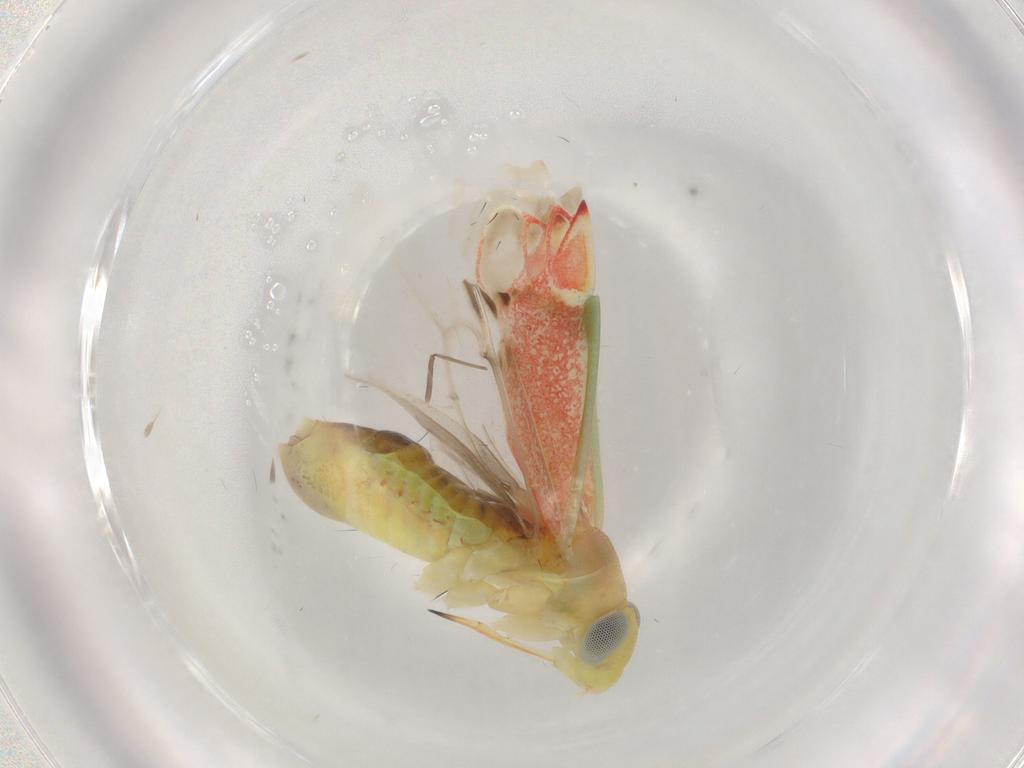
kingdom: Animalia
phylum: Arthropoda
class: Insecta
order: Hemiptera
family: Miridae
